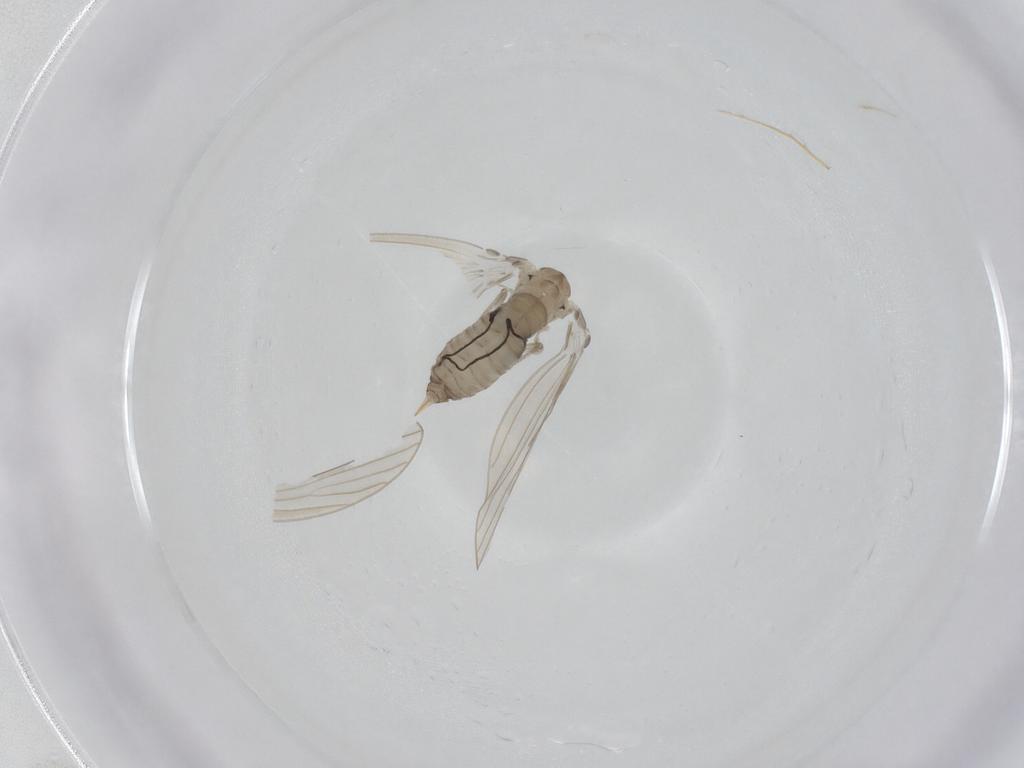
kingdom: Animalia
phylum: Arthropoda
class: Insecta
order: Diptera
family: Psychodidae
